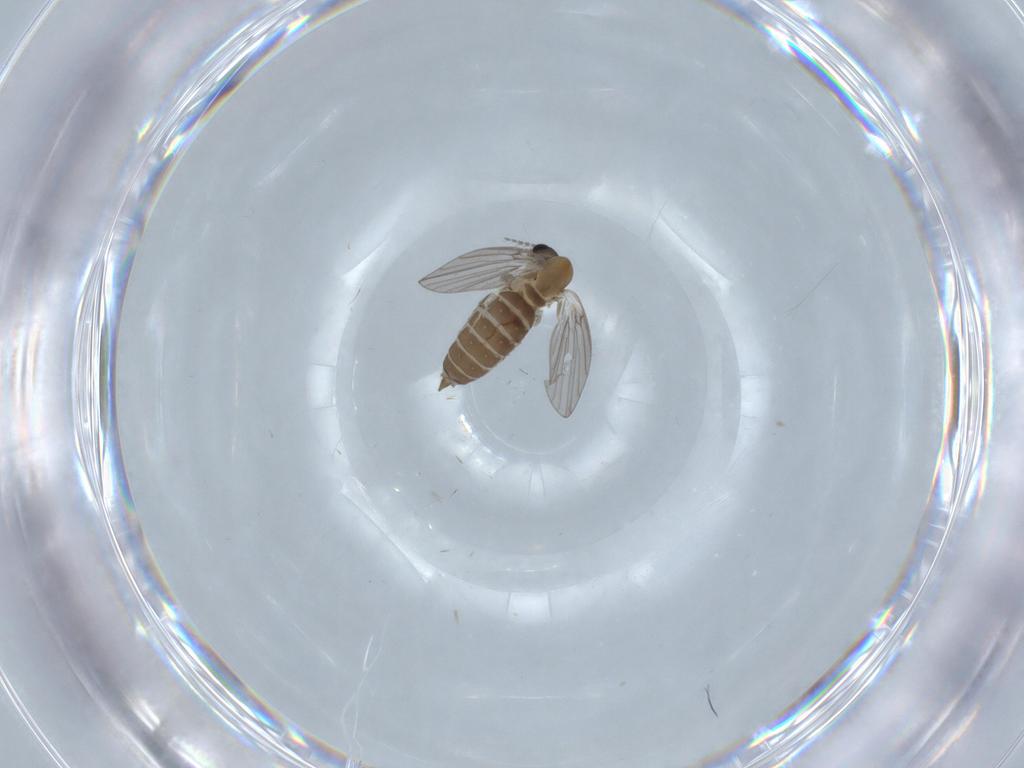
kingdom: Animalia
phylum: Arthropoda
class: Insecta
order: Diptera
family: Psychodidae
